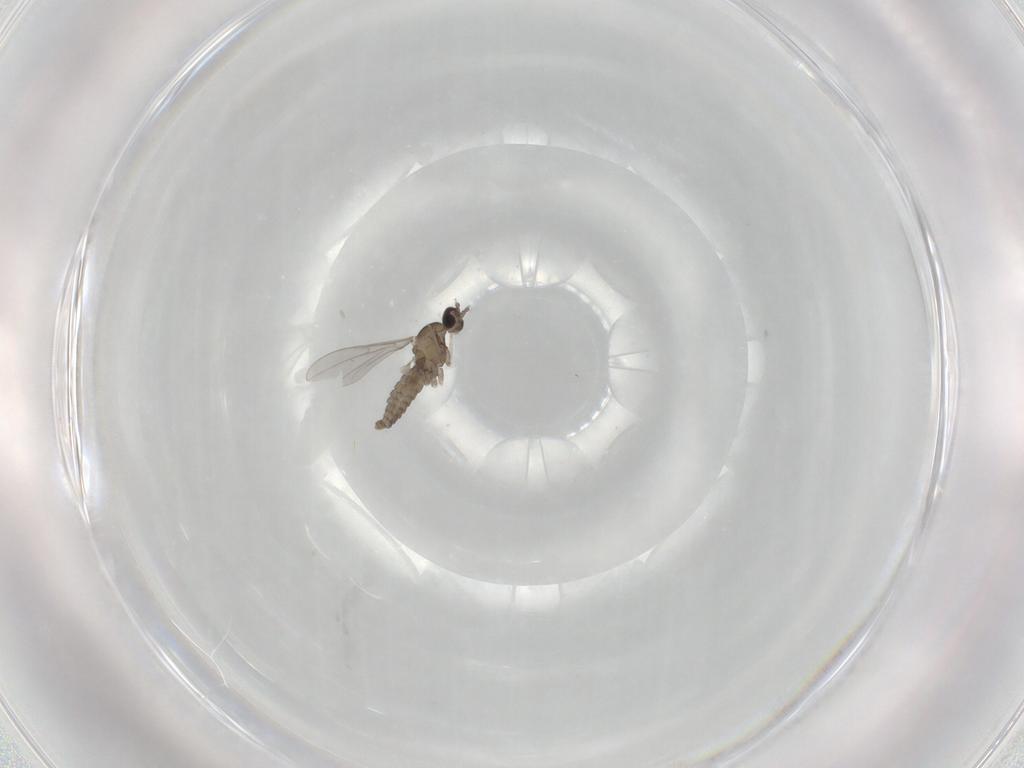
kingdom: Animalia
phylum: Arthropoda
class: Insecta
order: Diptera
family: Cecidomyiidae
